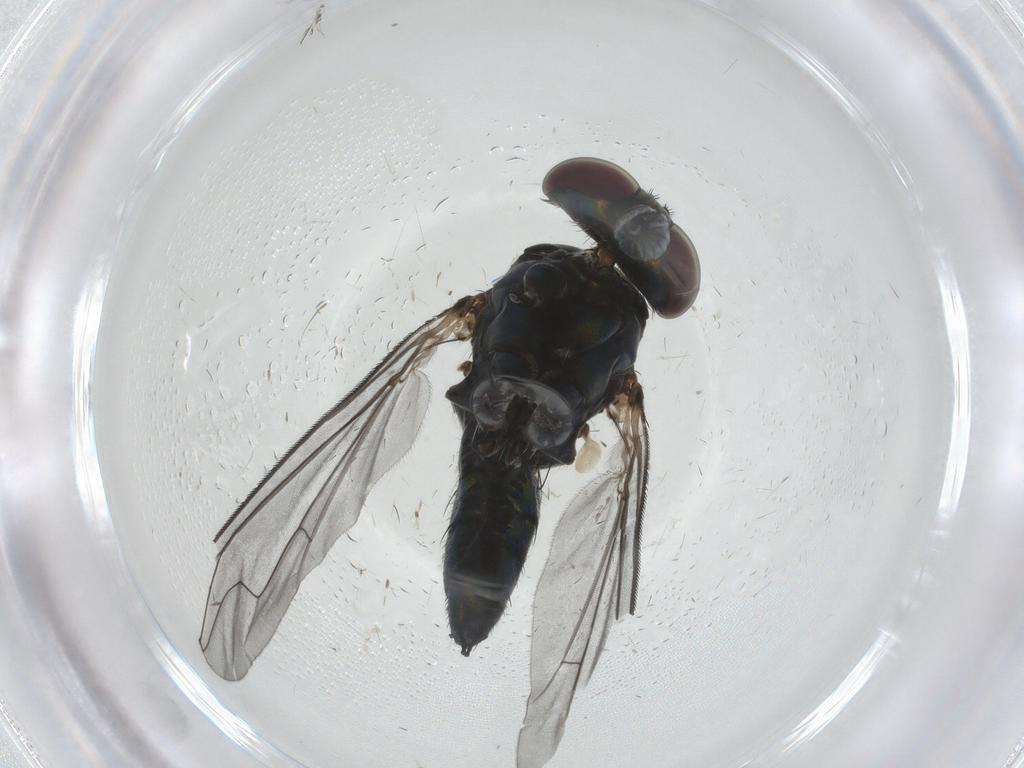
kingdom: Animalia
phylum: Arthropoda
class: Insecta
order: Diptera
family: Dolichopodidae
